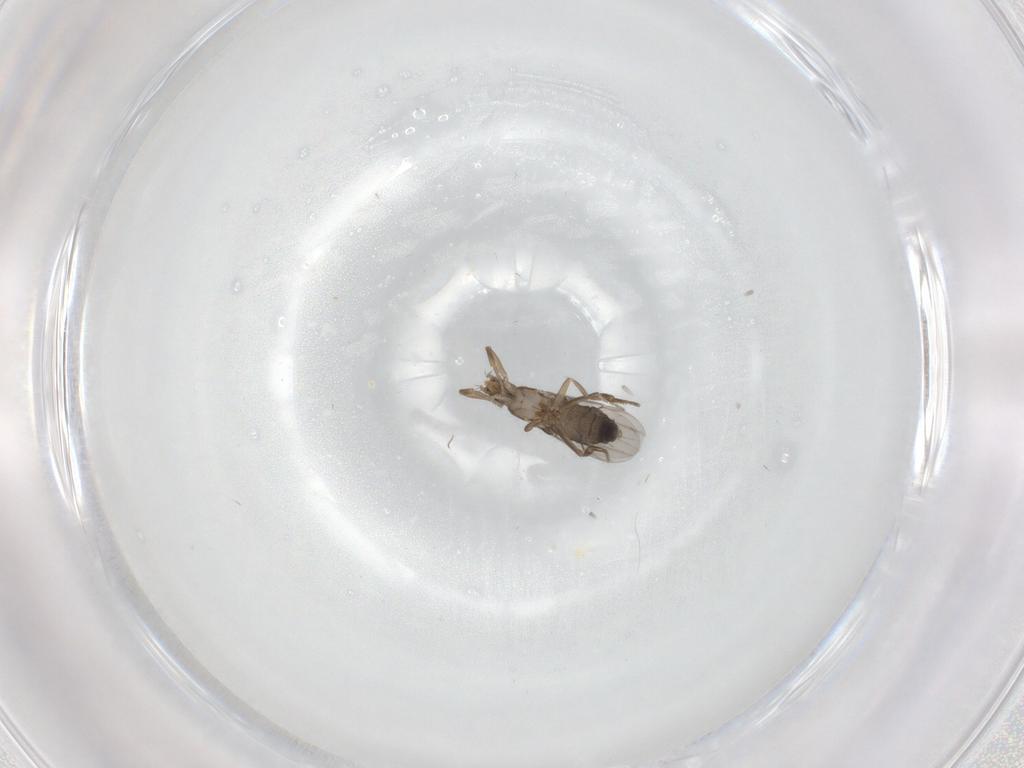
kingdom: Animalia
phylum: Arthropoda
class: Insecta
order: Diptera
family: Phoridae
